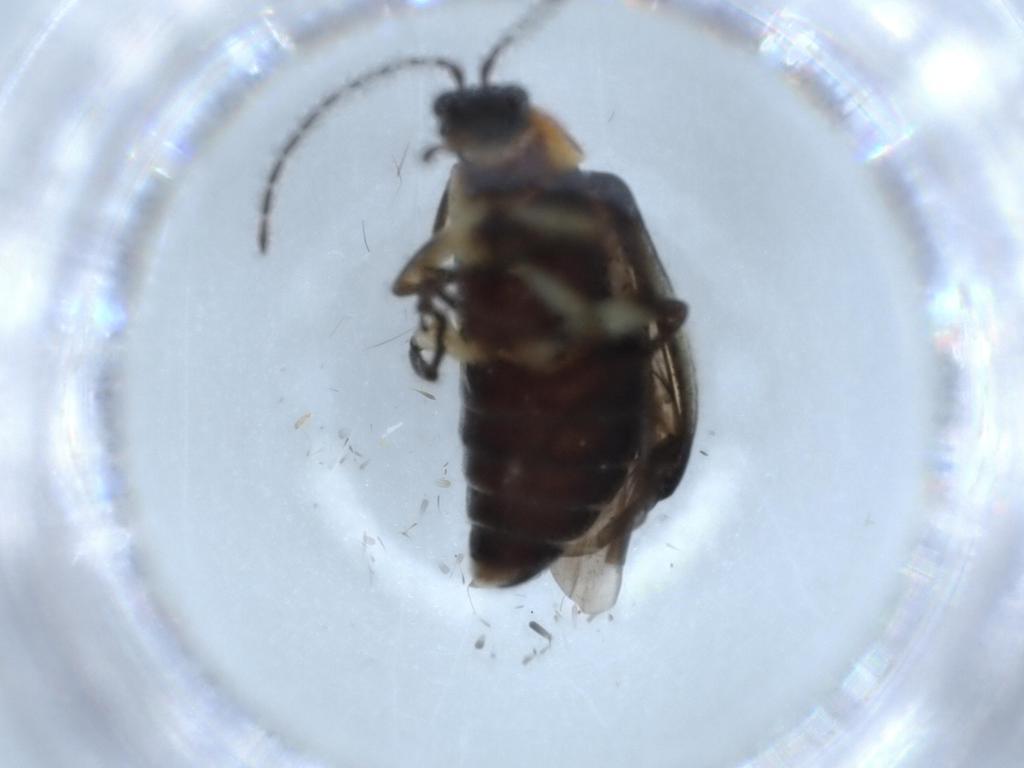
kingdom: Animalia
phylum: Arthropoda
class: Insecta
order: Coleoptera
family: Chrysomelidae
